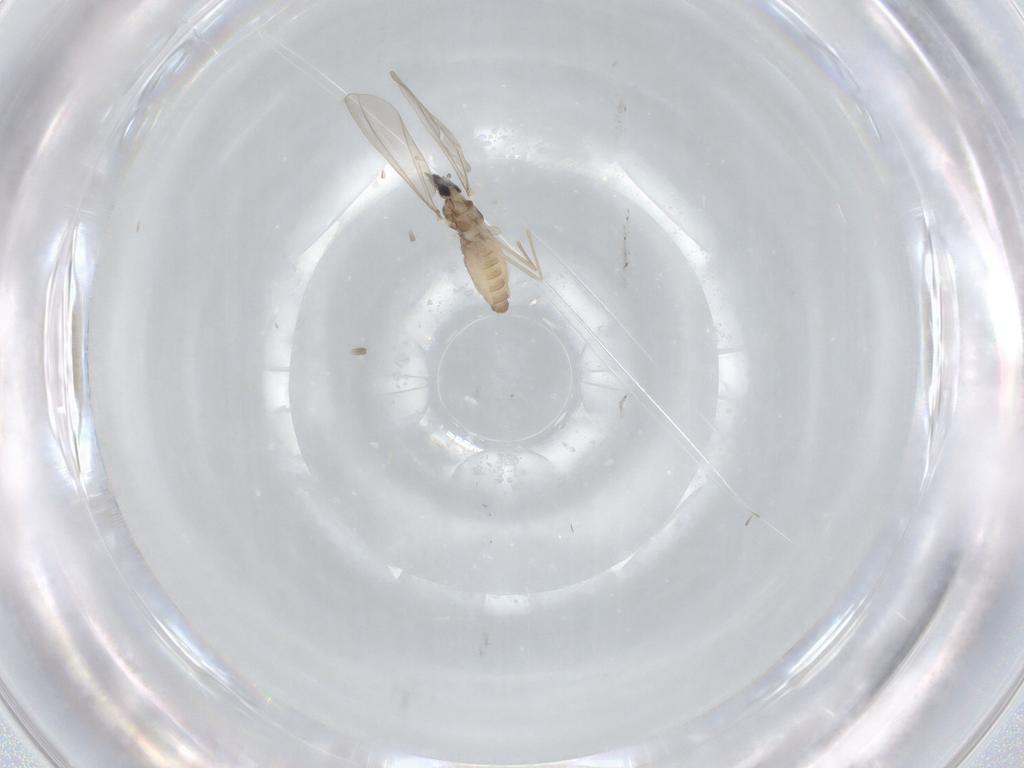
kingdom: Animalia
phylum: Arthropoda
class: Insecta
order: Diptera
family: Cecidomyiidae
